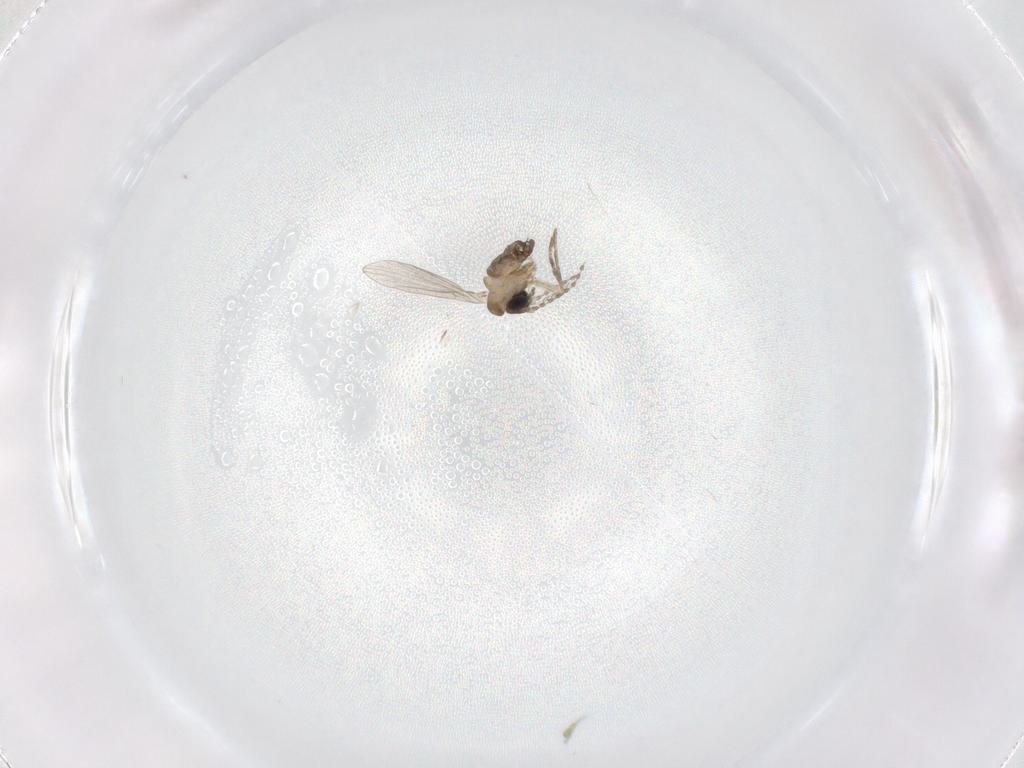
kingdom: Animalia
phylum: Arthropoda
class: Insecta
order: Diptera
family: Psychodidae
